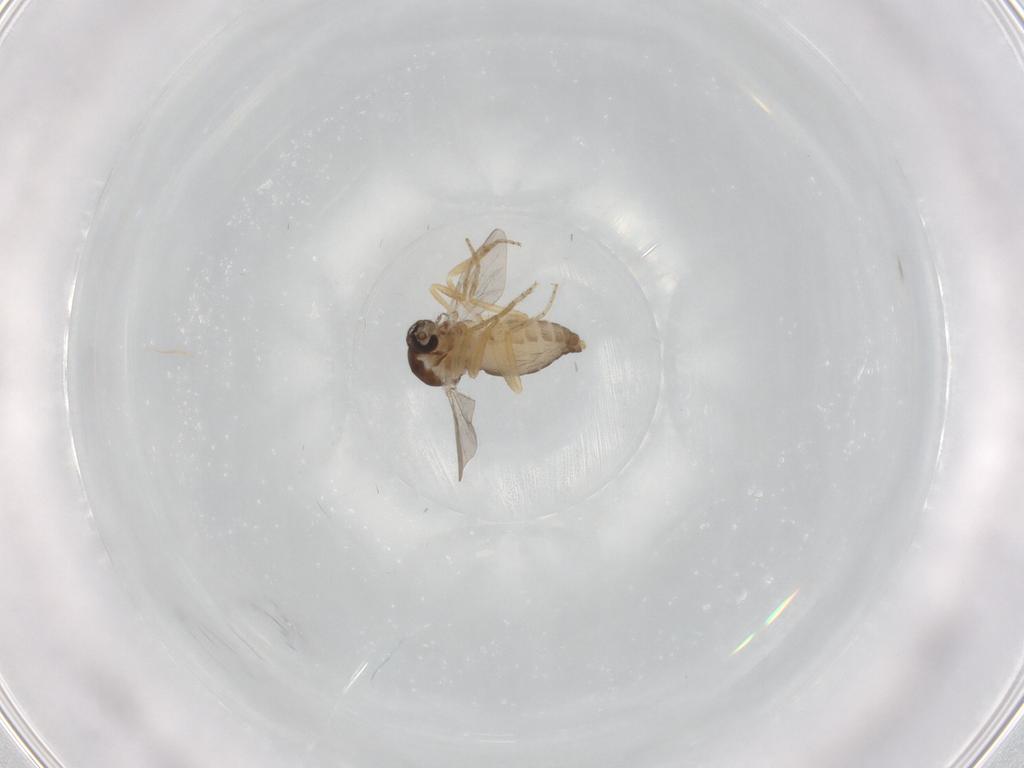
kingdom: Animalia
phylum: Arthropoda
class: Insecta
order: Diptera
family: Ceratopogonidae
